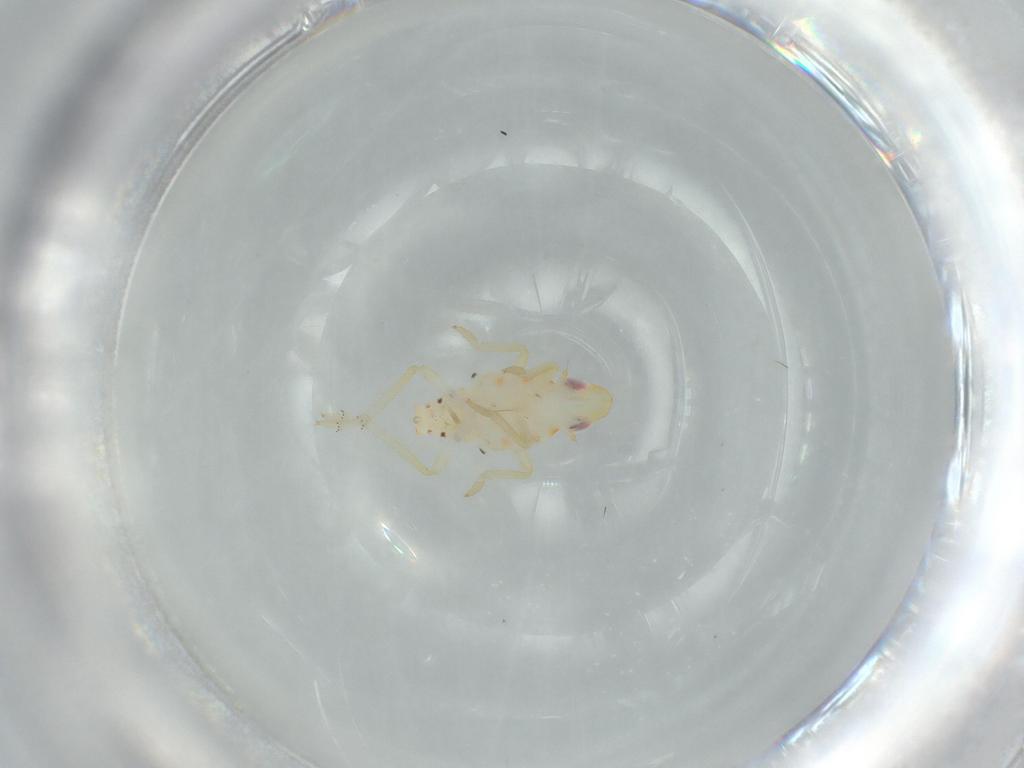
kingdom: Animalia
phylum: Arthropoda
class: Insecta
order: Hemiptera
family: Tropiduchidae
